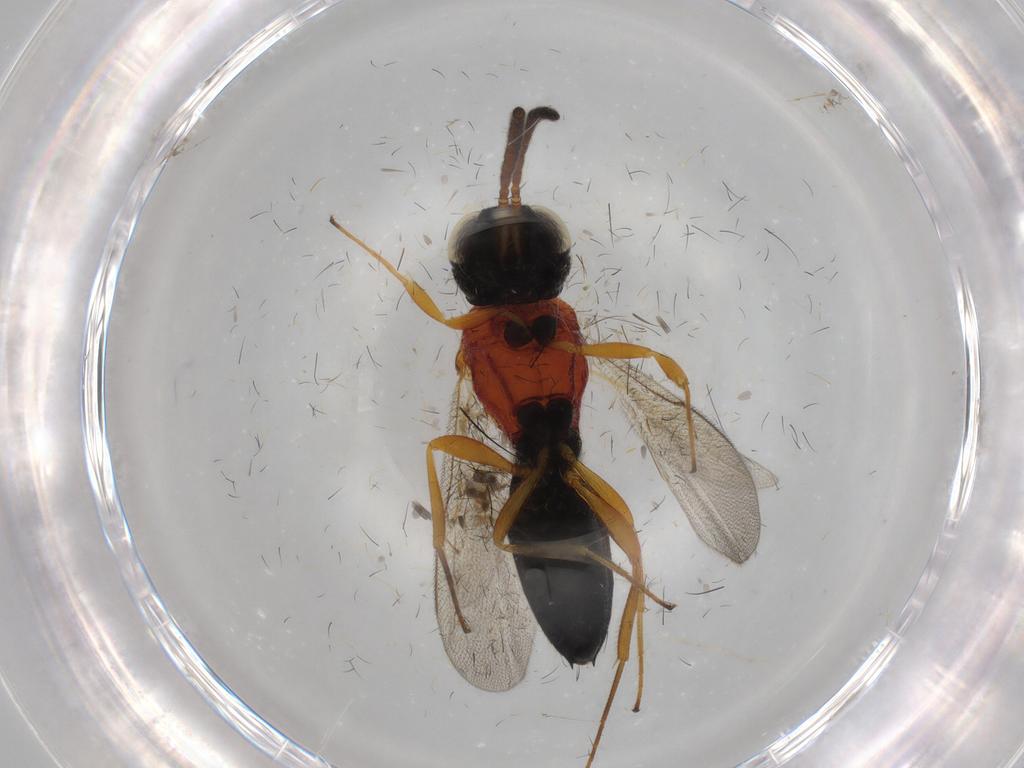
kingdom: Animalia
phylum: Arthropoda
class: Insecta
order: Hymenoptera
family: Scelionidae
